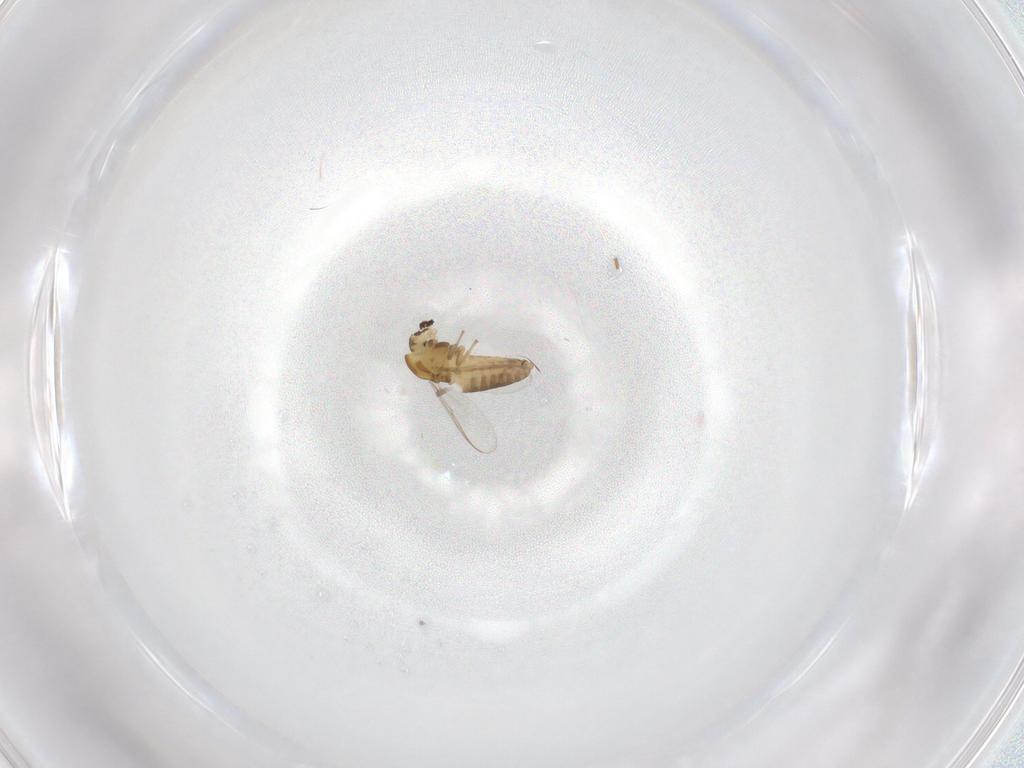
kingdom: Animalia
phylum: Arthropoda
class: Insecta
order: Diptera
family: Chironomidae
